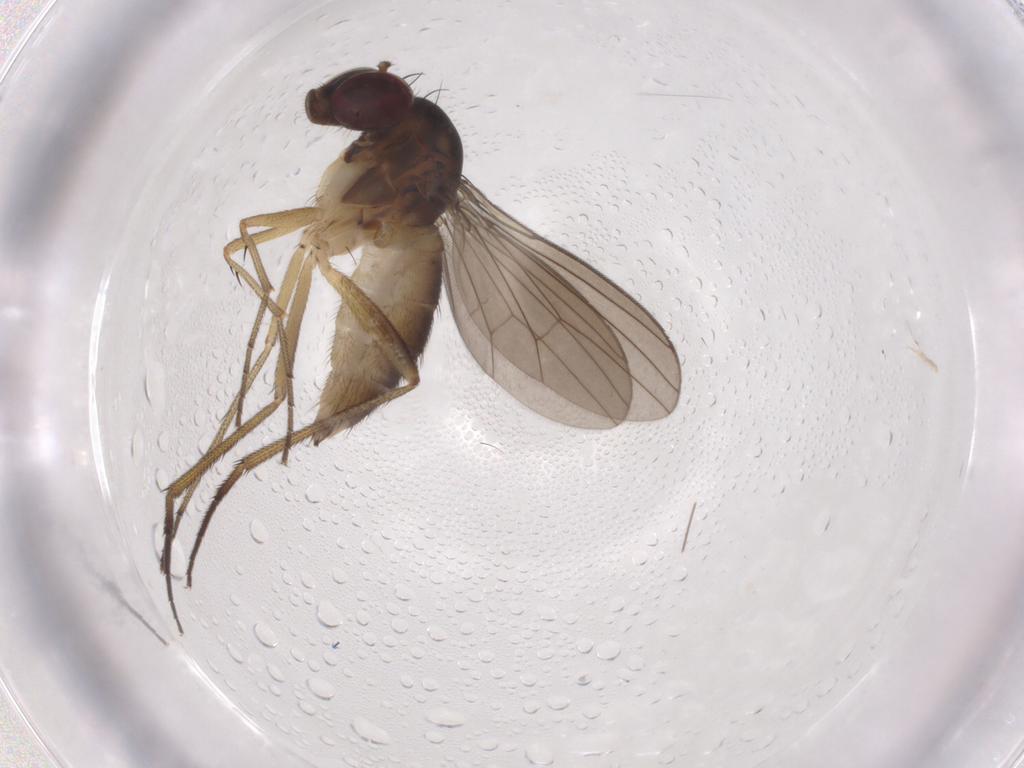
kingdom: Animalia
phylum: Arthropoda
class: Insecta
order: Diptera
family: Dolichopodidae
